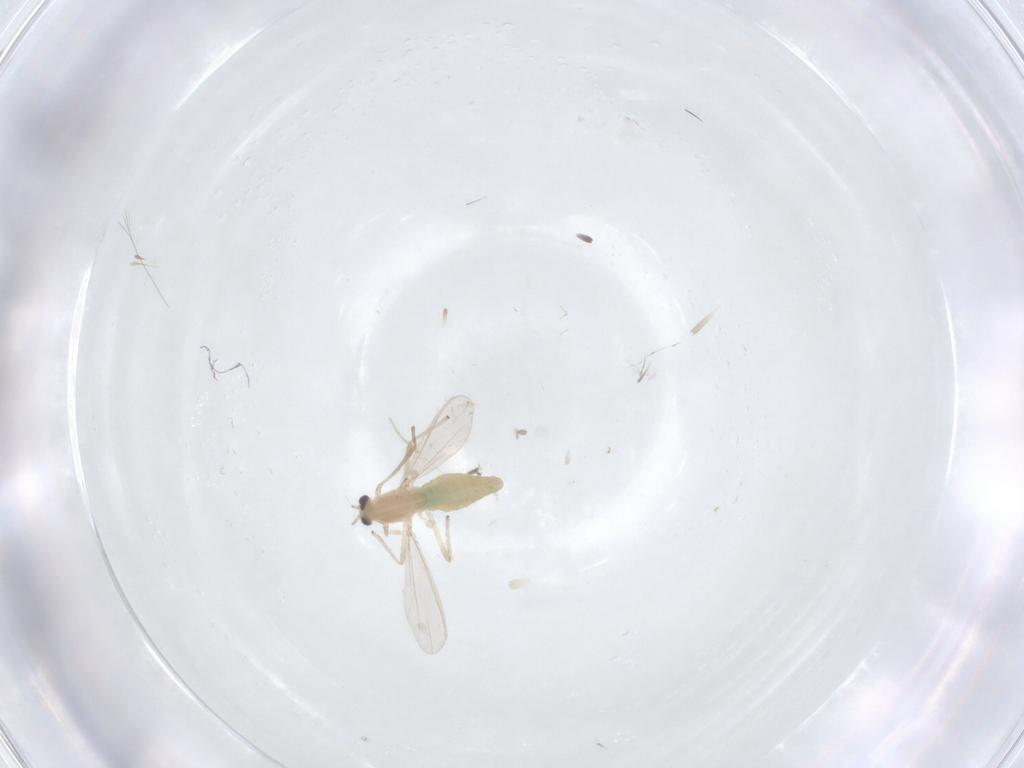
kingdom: Animalia
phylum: Arthropoda
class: Insecta
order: Diptera
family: Chironomidae
